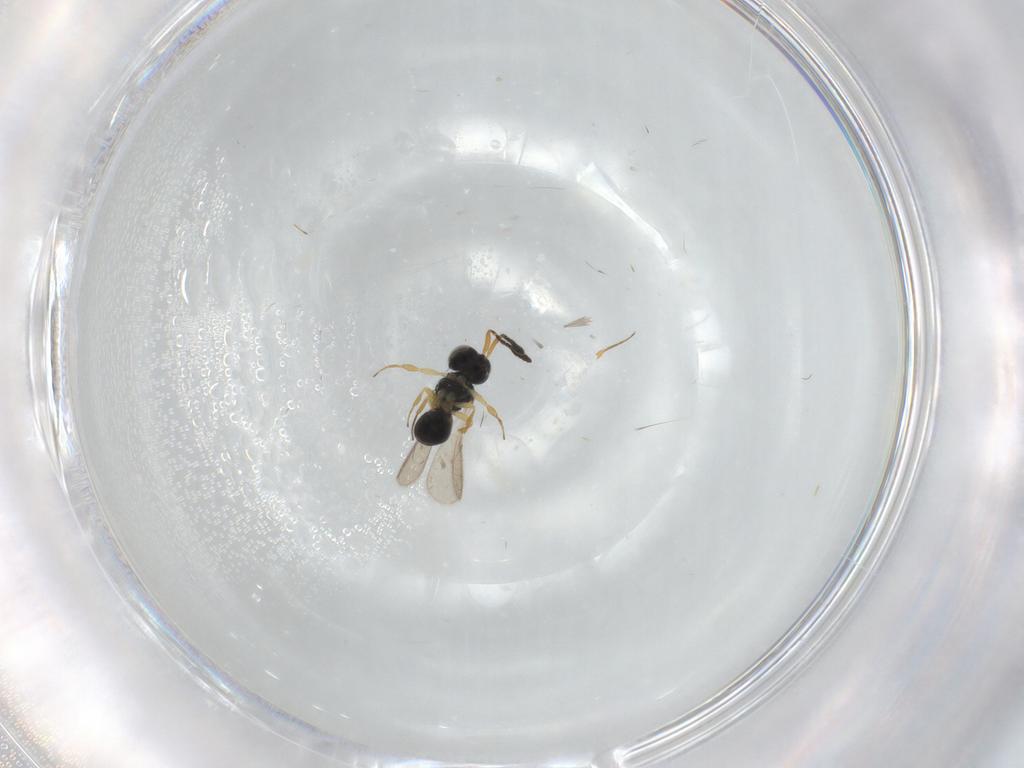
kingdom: Animalia
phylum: Arthropoda
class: Insecta
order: Hymenoptera
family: Scelionidae
